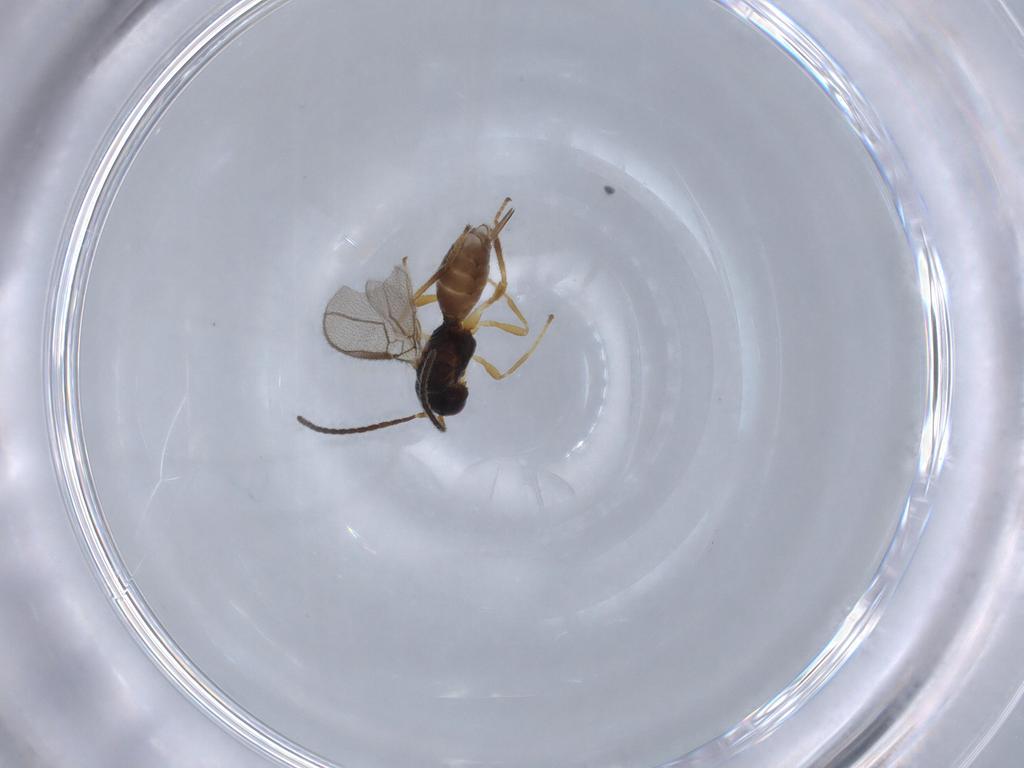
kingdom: Animalia
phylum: Arthropoda
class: Insecta
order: Hymenoptera
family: Braconidae
